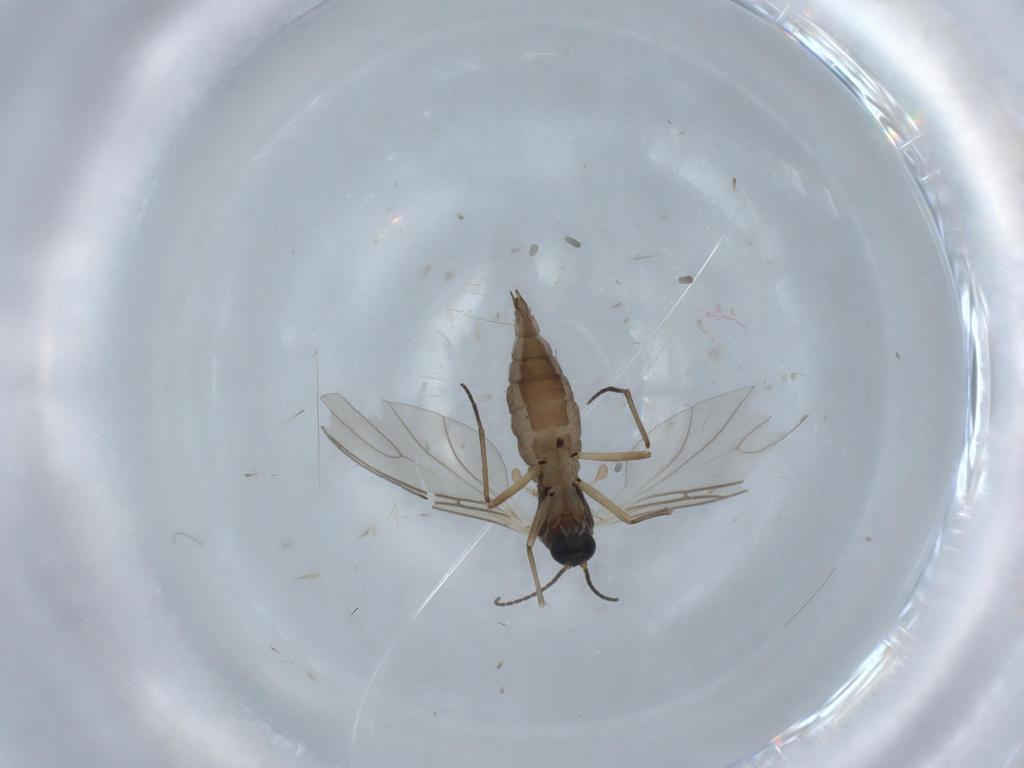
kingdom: Animalia
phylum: Arthropoda
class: Insecta
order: Diptera
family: Sciaridae
